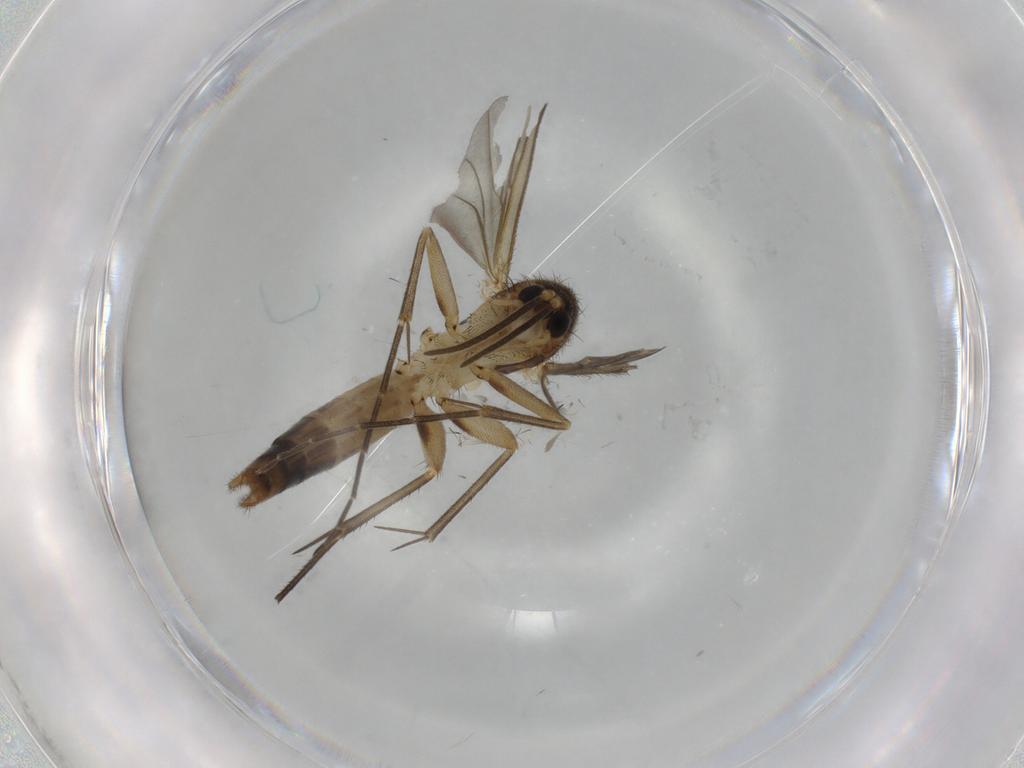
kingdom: Animalia
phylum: Arthropoda
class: Insecta
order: Diptera
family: Mycetophilidae
